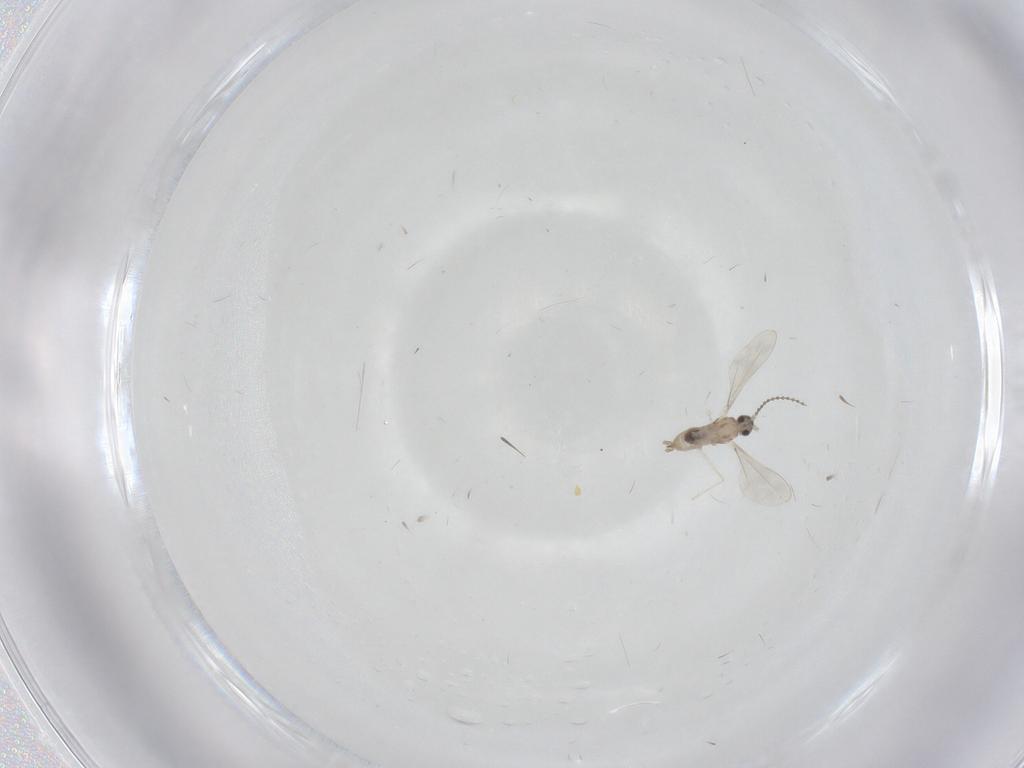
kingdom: Animalia
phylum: Arthropoda
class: Insecta
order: Diptera
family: Cecidomyiidae
